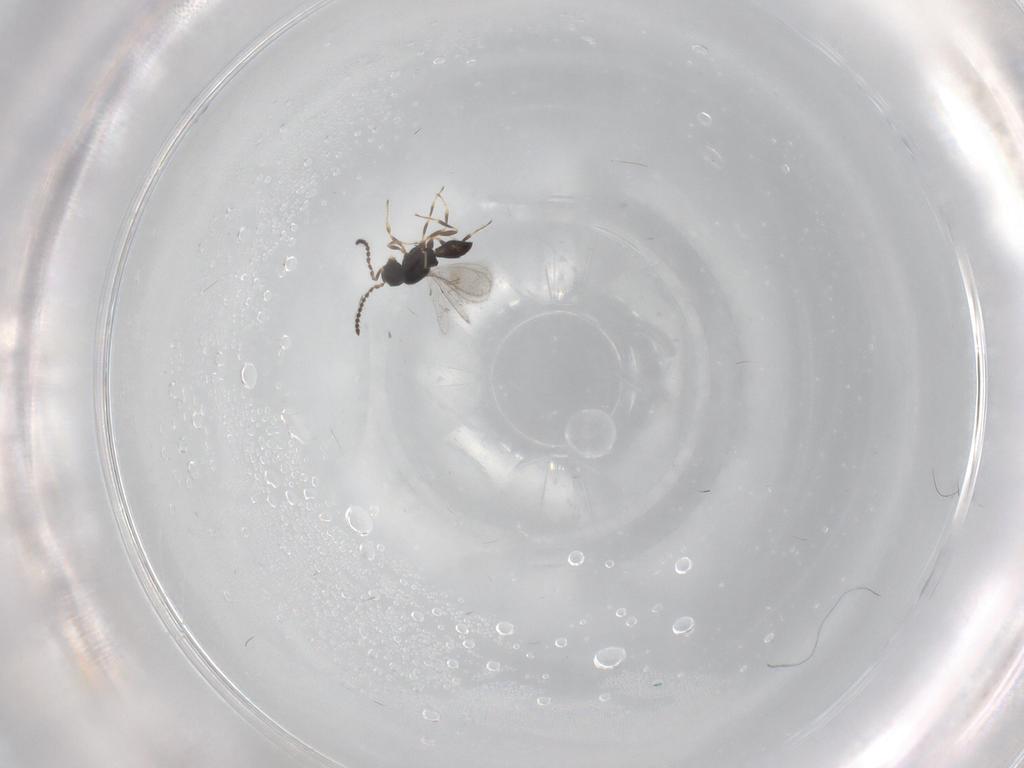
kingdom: Animalia
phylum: Arthropoda
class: Insecta
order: Hymenoptera
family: Scelionidae
